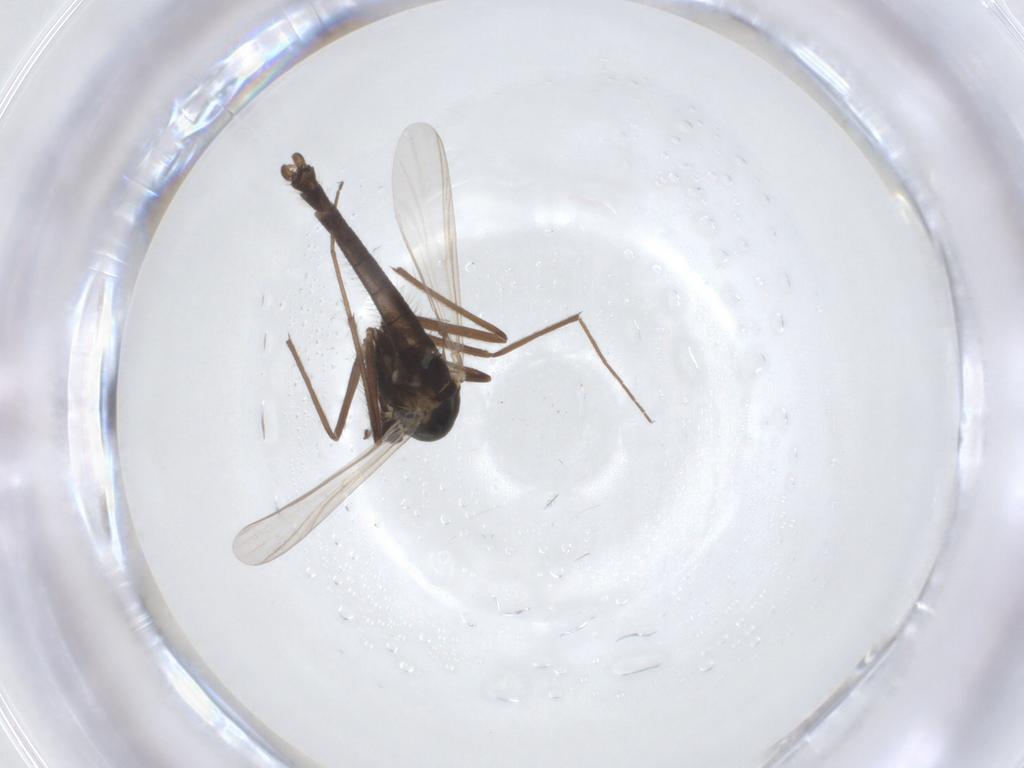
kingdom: Animalia
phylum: Arthropoda
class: Insecta
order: Diptera
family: Chironomidae
